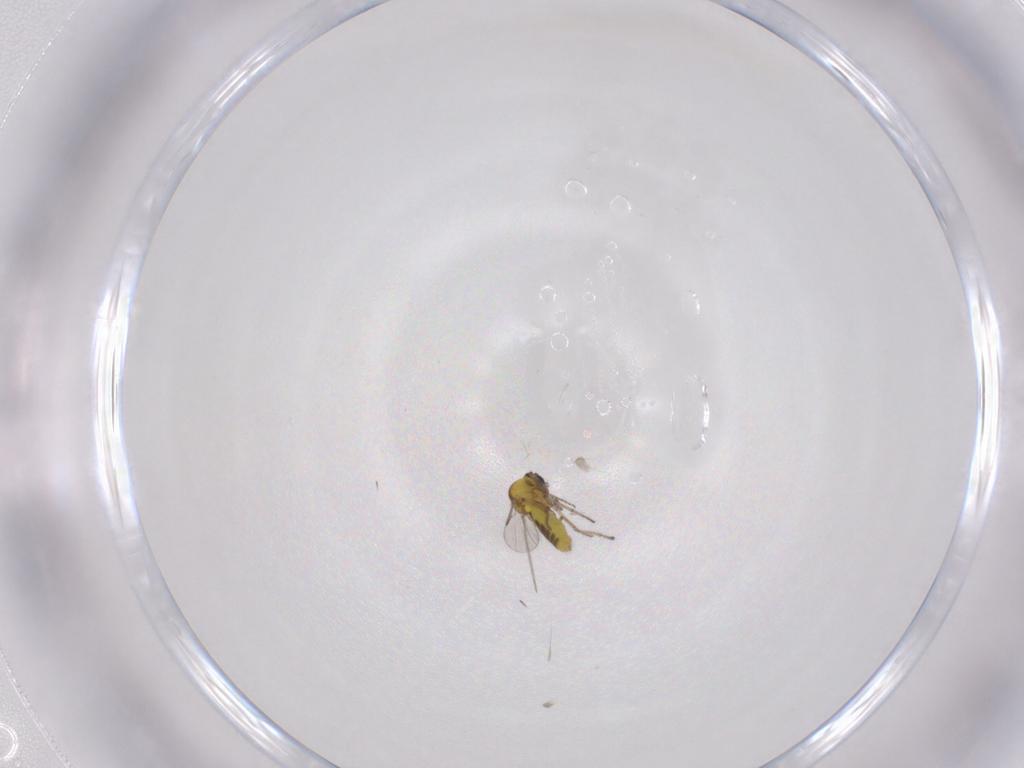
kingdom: Animalia
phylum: Arthropoda
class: Insecta
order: Diptera
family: Ceratopogonidae
